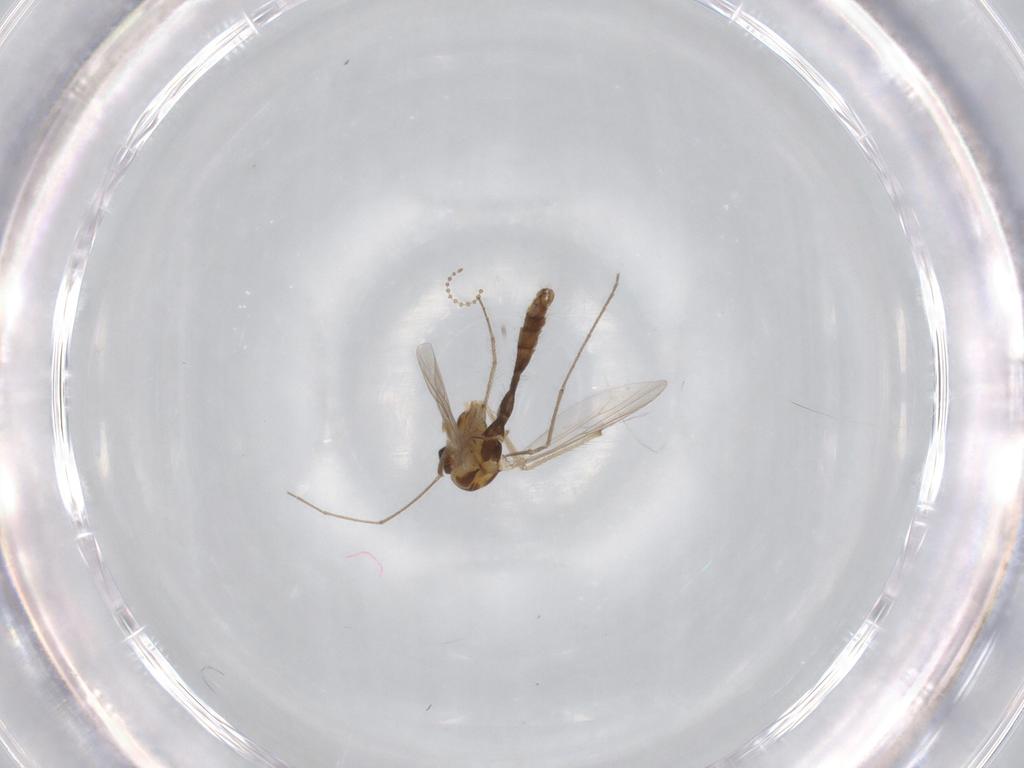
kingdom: Animalia
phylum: Arthropoda
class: Insecta
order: Diptera
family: Chironomidae
